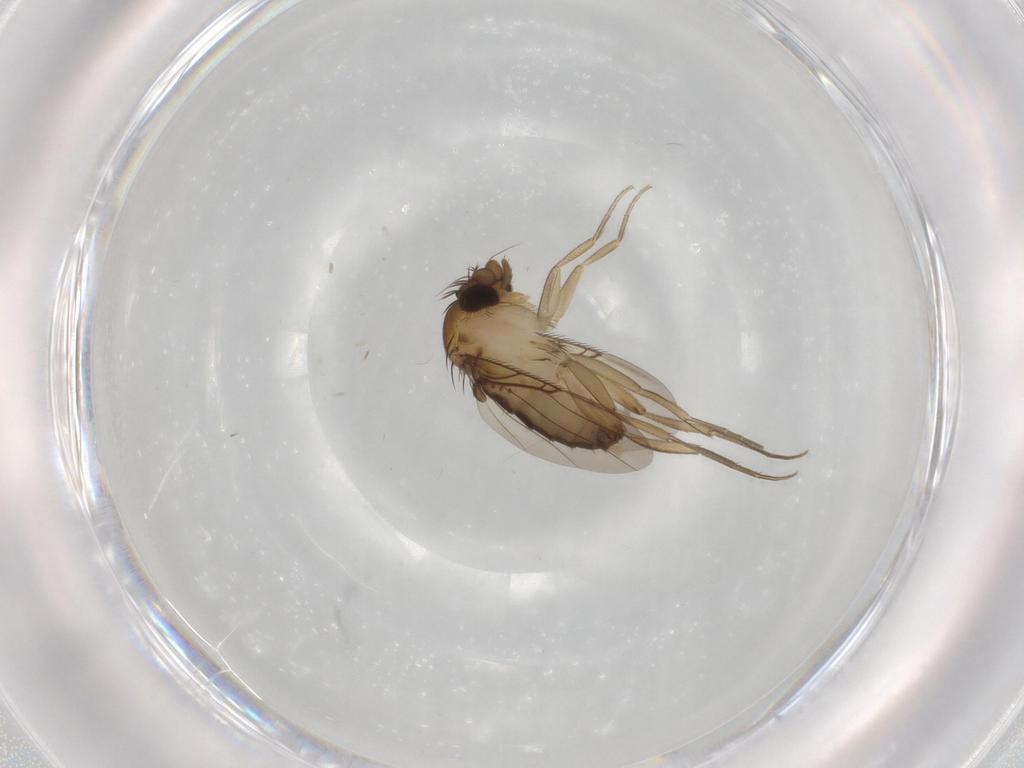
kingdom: Animalia
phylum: Arthropoda
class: Insecta
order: Diptera
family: Phoridae
